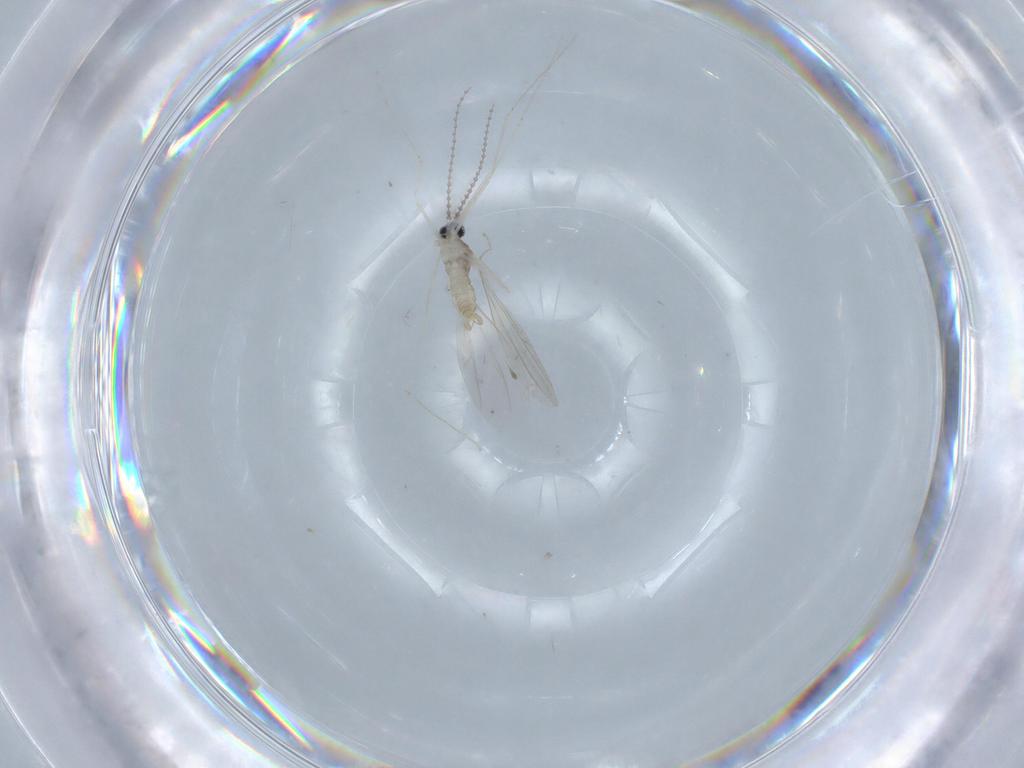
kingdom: Animalia
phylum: Arthropoda
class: Insecta
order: Diptera
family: Cecidomyiidae
